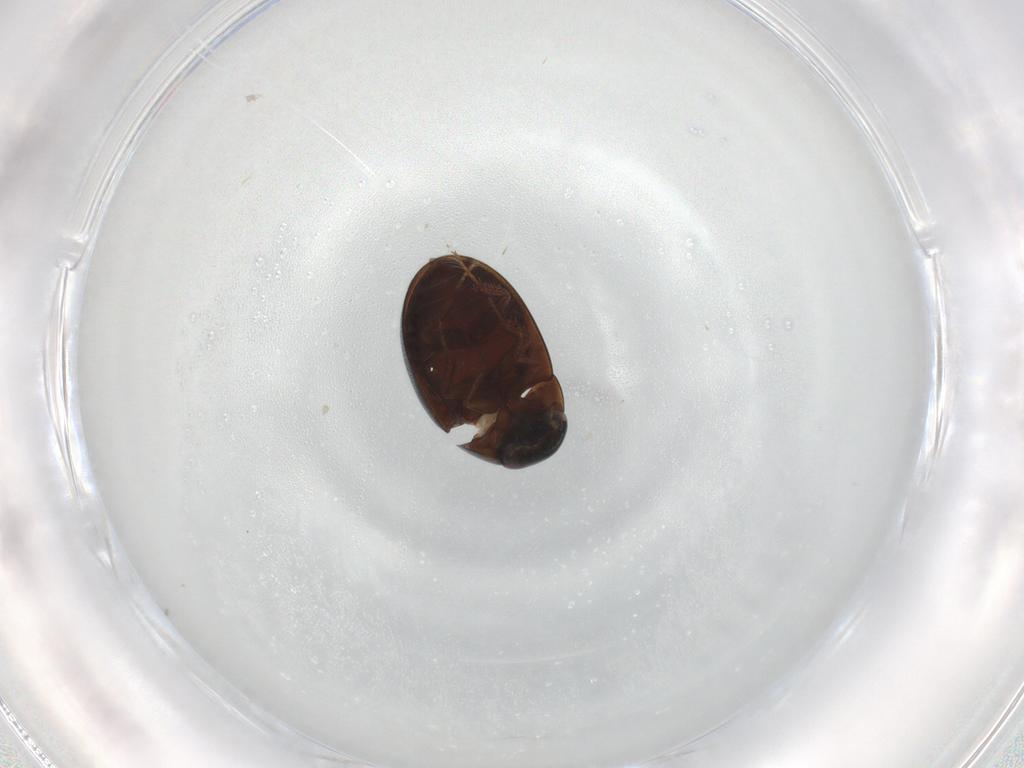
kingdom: Animalia
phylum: Arthropoda
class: Insecta
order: Coleoptera
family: Hydrophilidae
